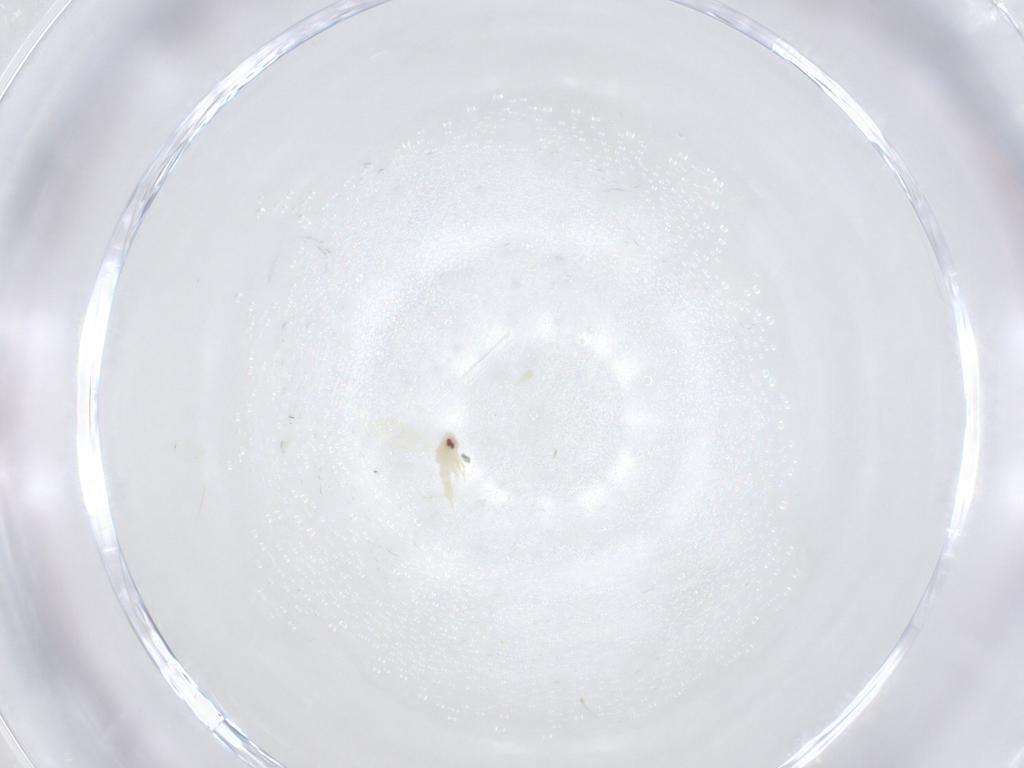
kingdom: Animalia
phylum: Arthropoda
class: Insecta
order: Hemiptera
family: Aleyrodidae
